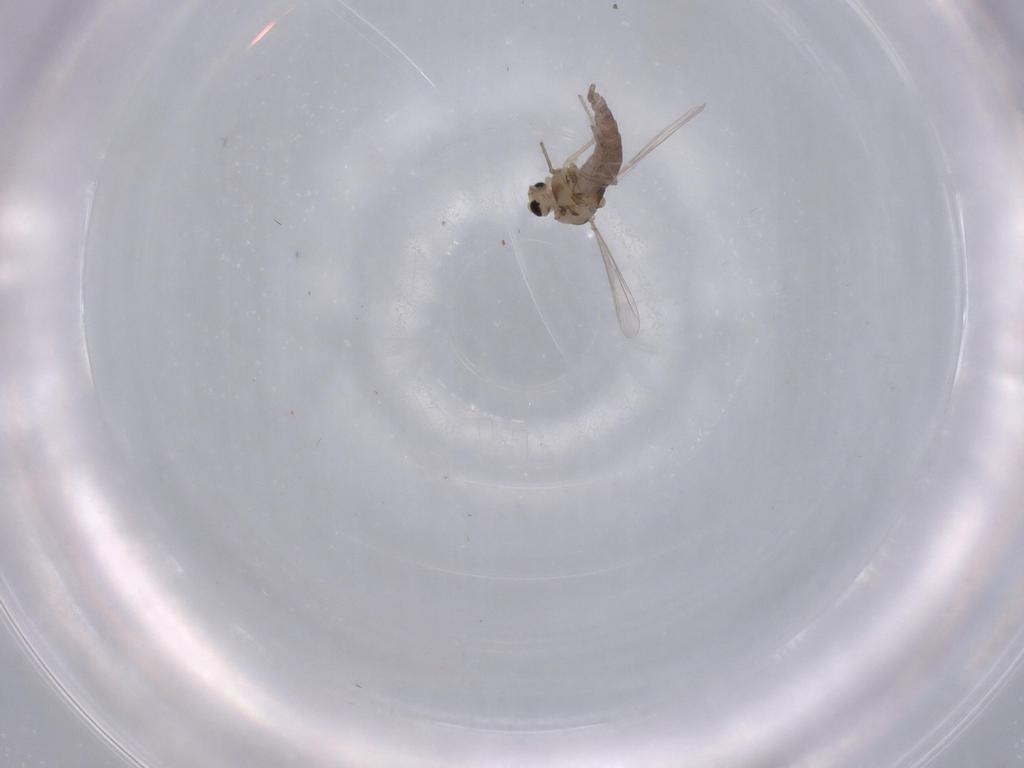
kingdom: Animalia
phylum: Arthropoda
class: Insecta
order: Diptera
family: Chironomidae
